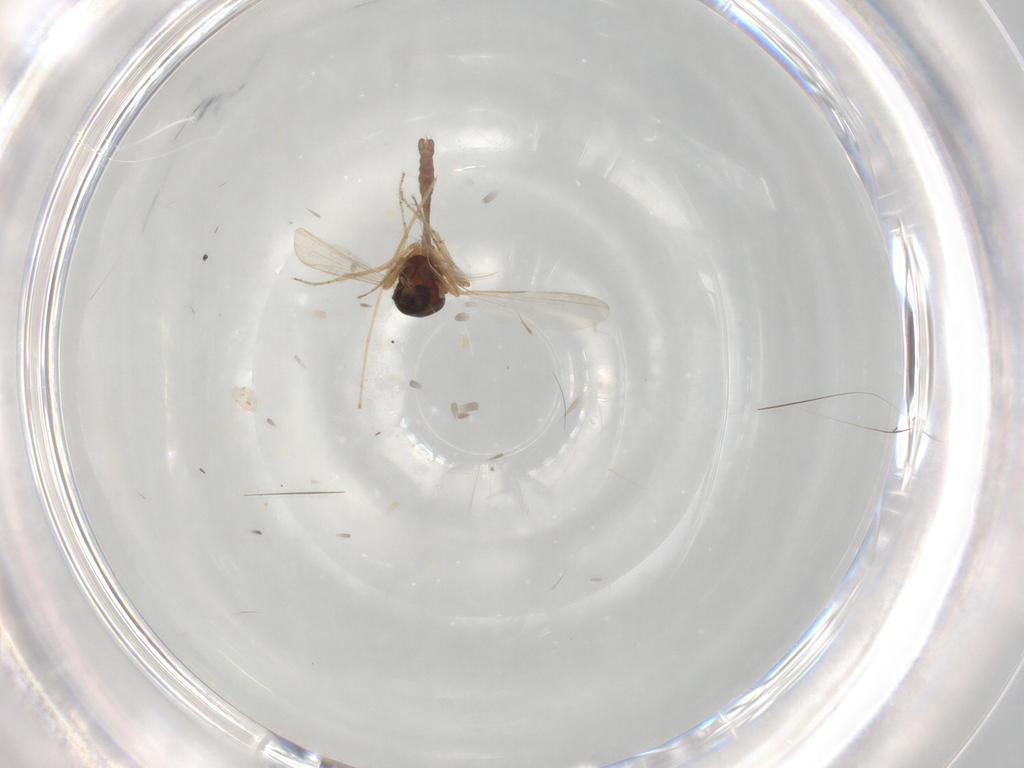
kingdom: Animalia
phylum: Arthropoda
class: Insecta
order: Diptera
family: Ceratopogonidae
